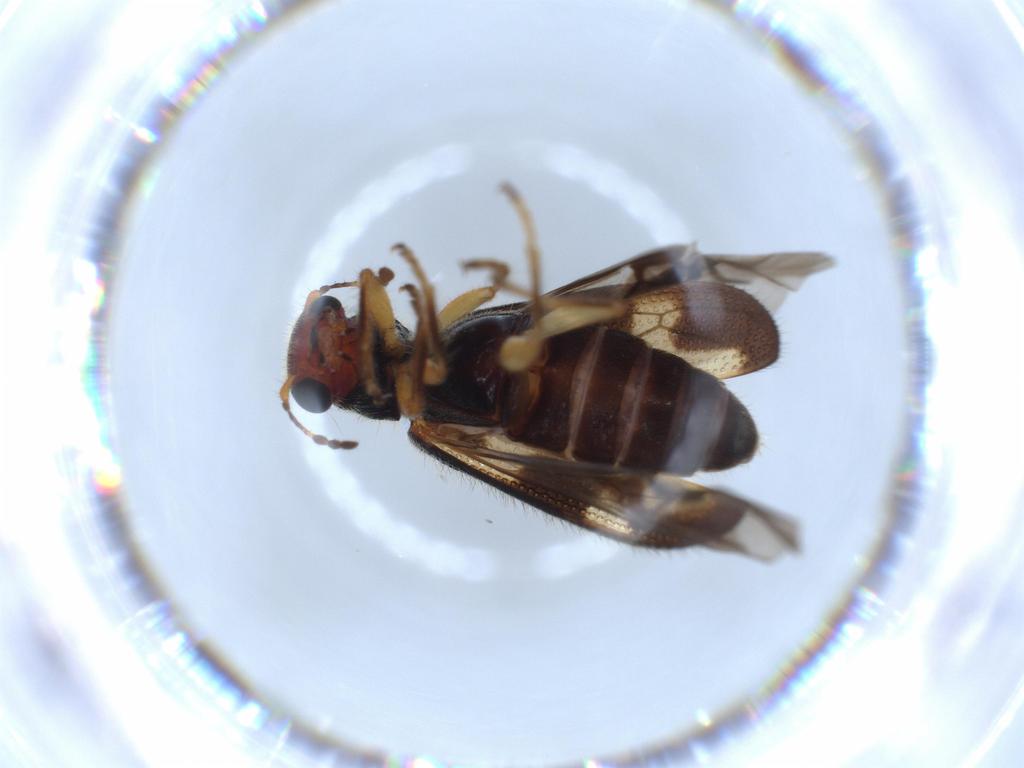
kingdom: Animalia
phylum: Arthropoda
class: Insecta
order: Coleoptera
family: Cleridae
